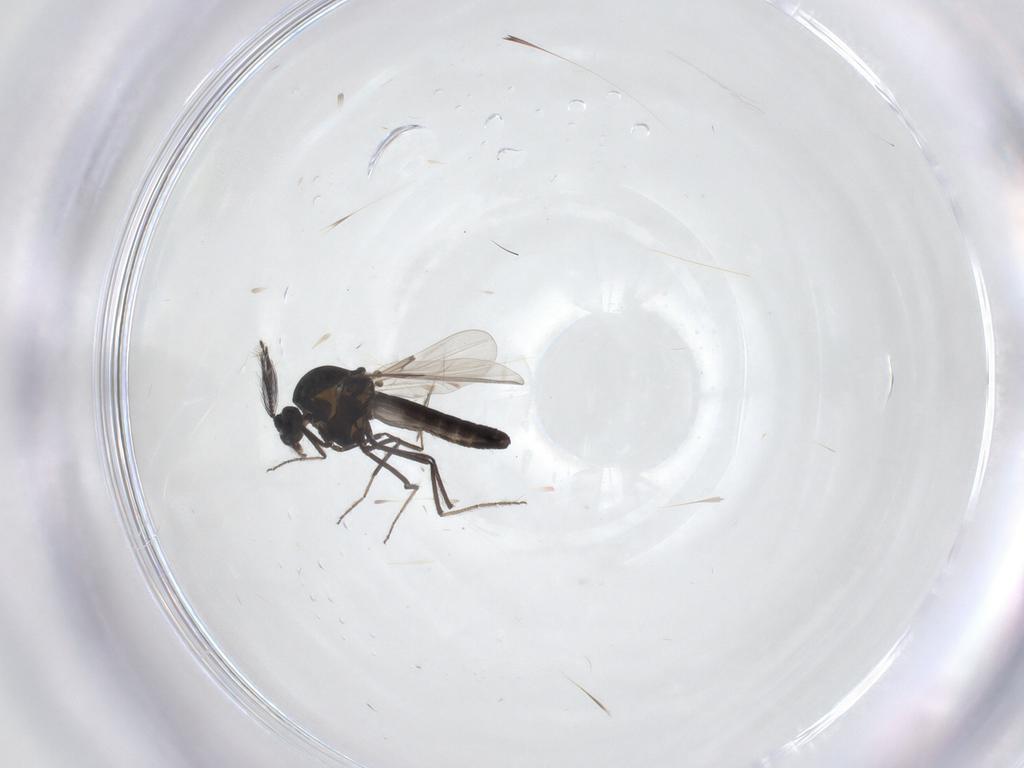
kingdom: Animalia
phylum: Arthropoda
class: Insecta
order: Diptera
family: Ceratopogonidae
